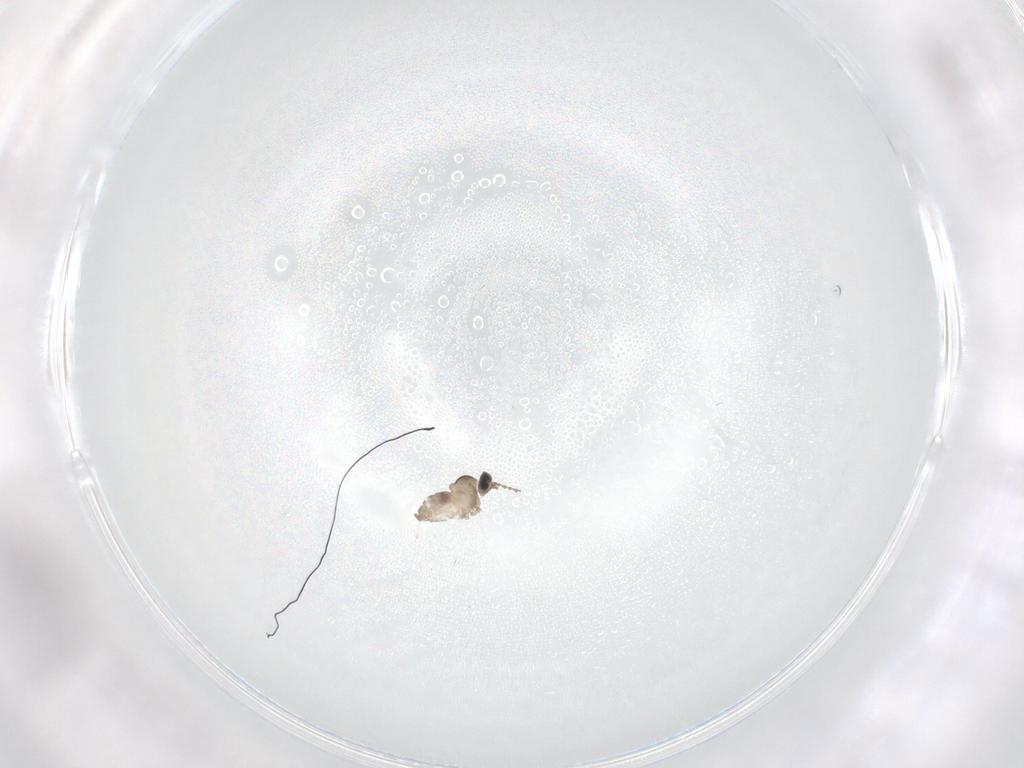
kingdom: Animalia
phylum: Arthropoda
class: Insecta
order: Diptera
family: Cecidomyiidae
